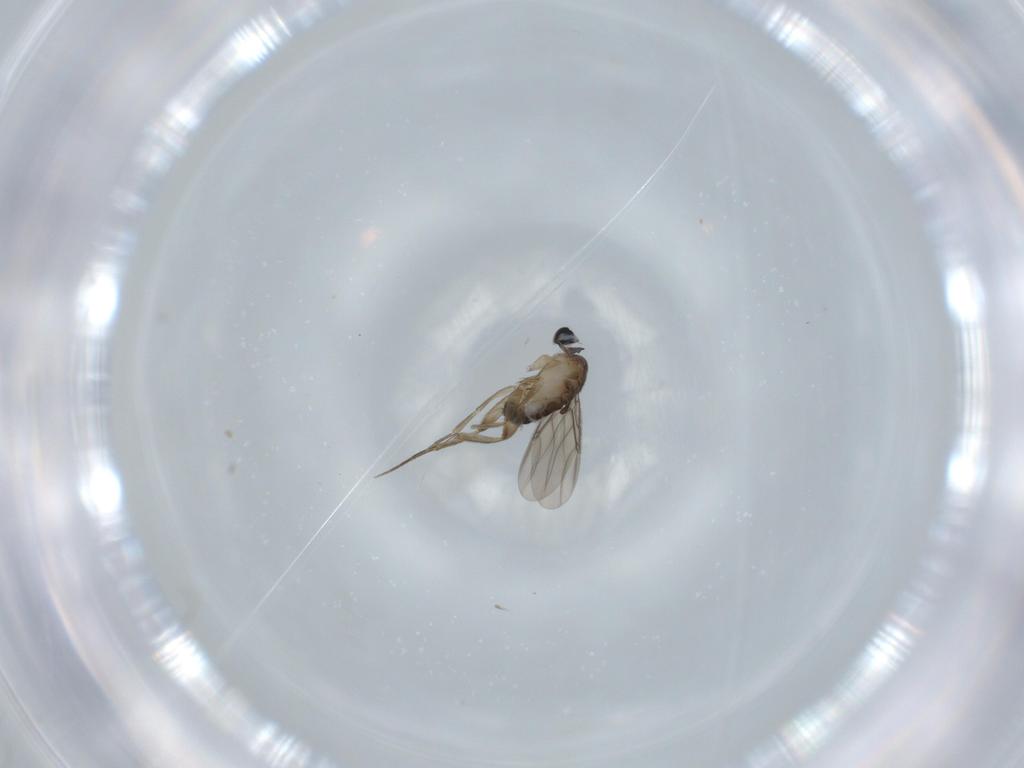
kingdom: Animalia
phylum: Arthropoda
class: Insecta
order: Diptera
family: Phoridae
